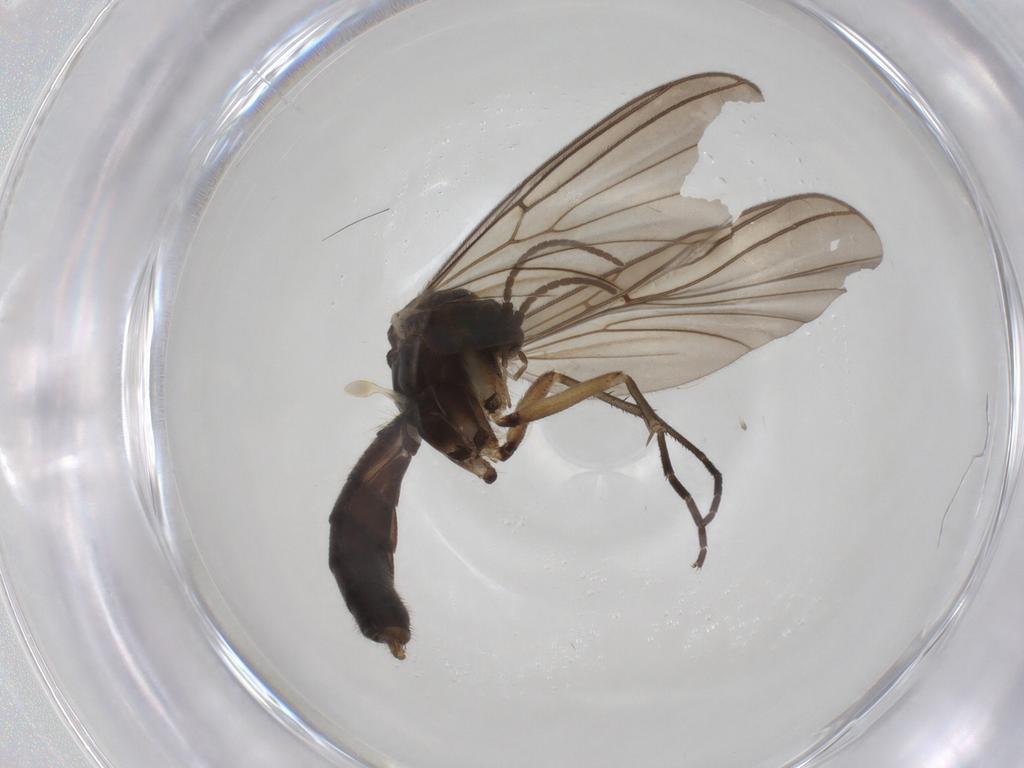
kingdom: Animalia
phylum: Arthropoda
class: Insecta
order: Diptera
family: Mycetophilidae
